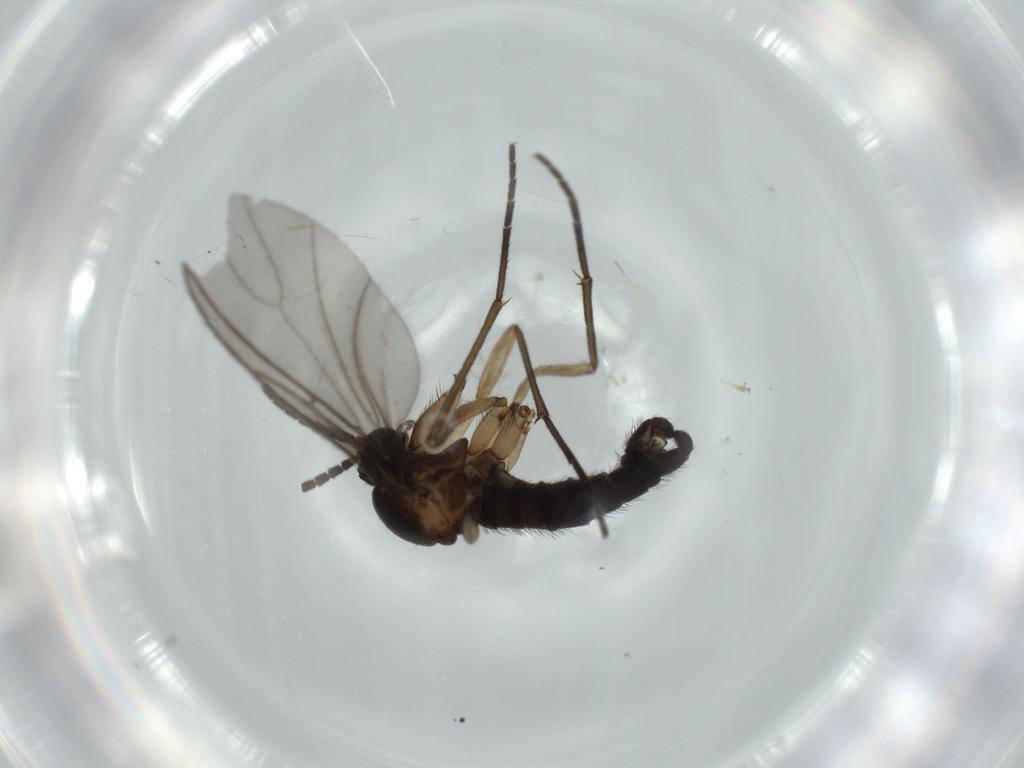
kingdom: Animalia
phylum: Arthropoda
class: Insecta
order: Diptera
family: Sciaridae
